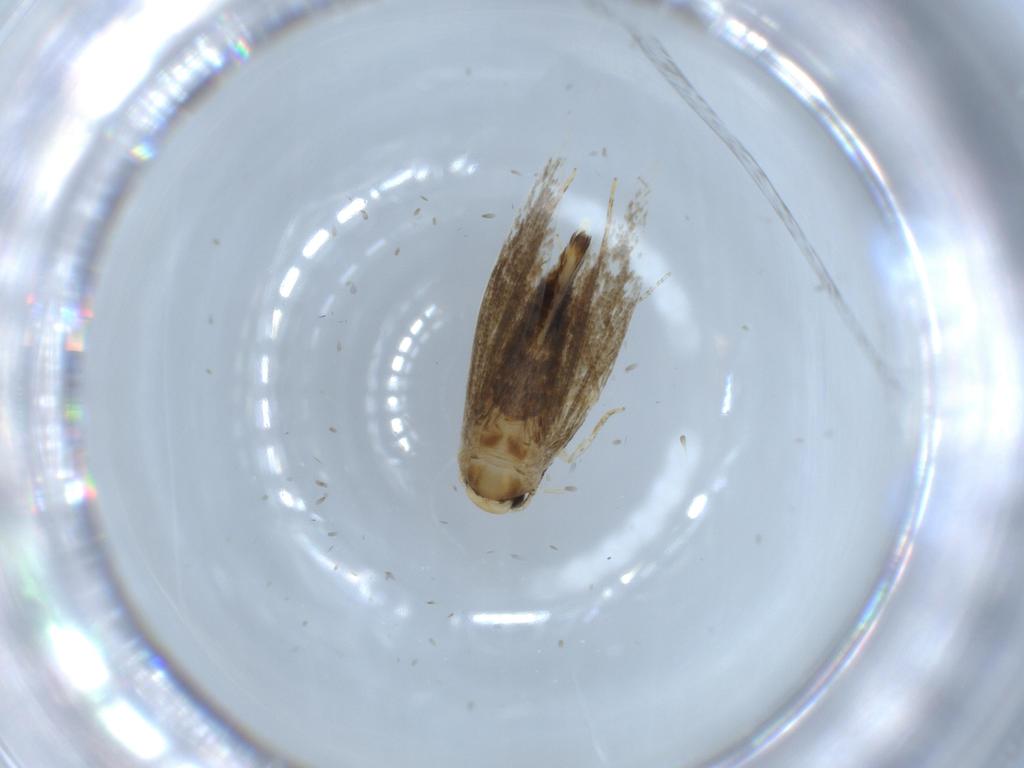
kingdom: Animalia
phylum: Arthropoda
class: Insecta
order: Lepidoptera
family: Tineidae
